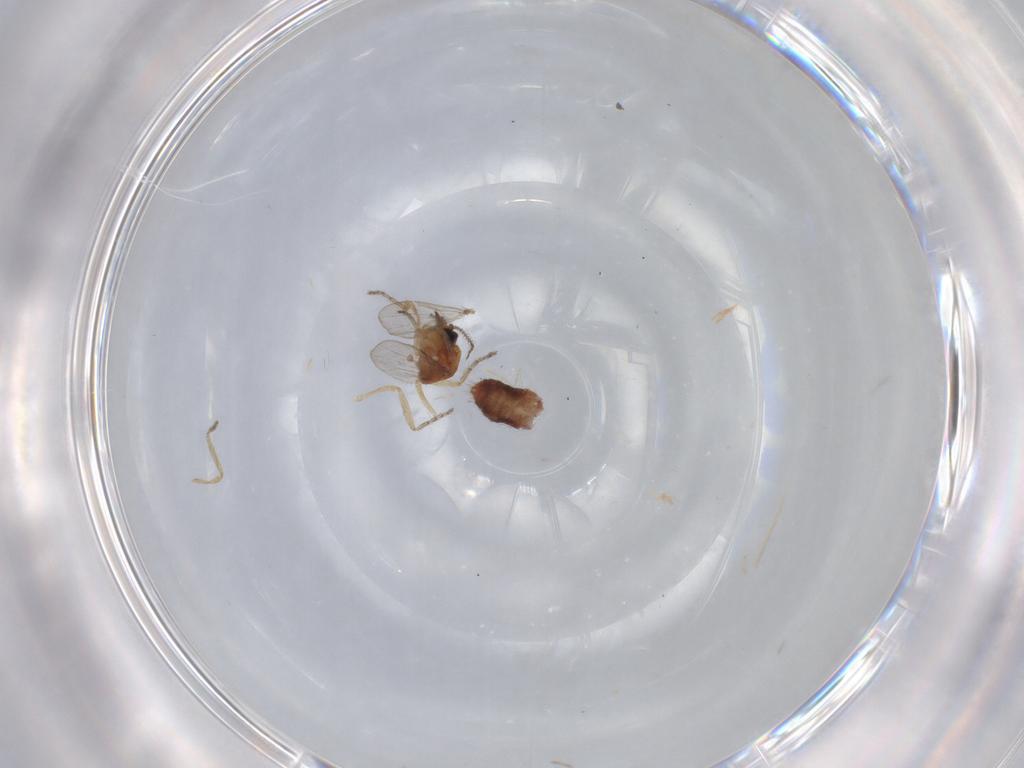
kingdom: Animalia
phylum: Arthropoda
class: Insecta
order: Diptera
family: Ceratopogonidae
